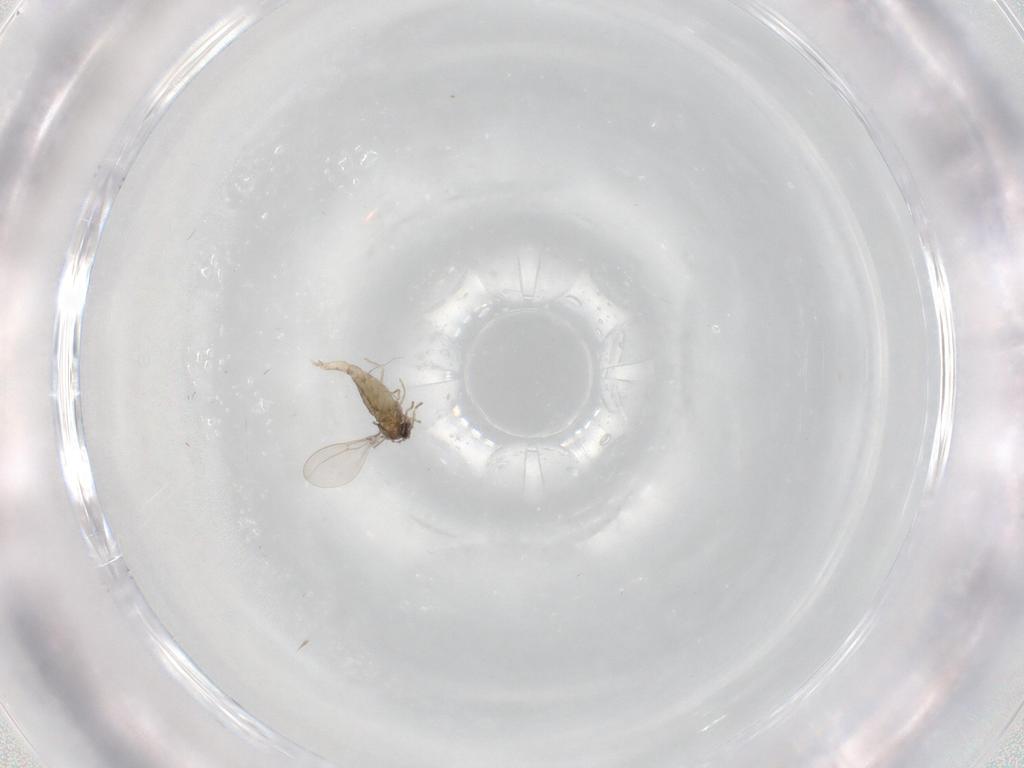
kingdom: Animalia
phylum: Arthropoda
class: Insecta
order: Diptera
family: Cecidomyiidae
